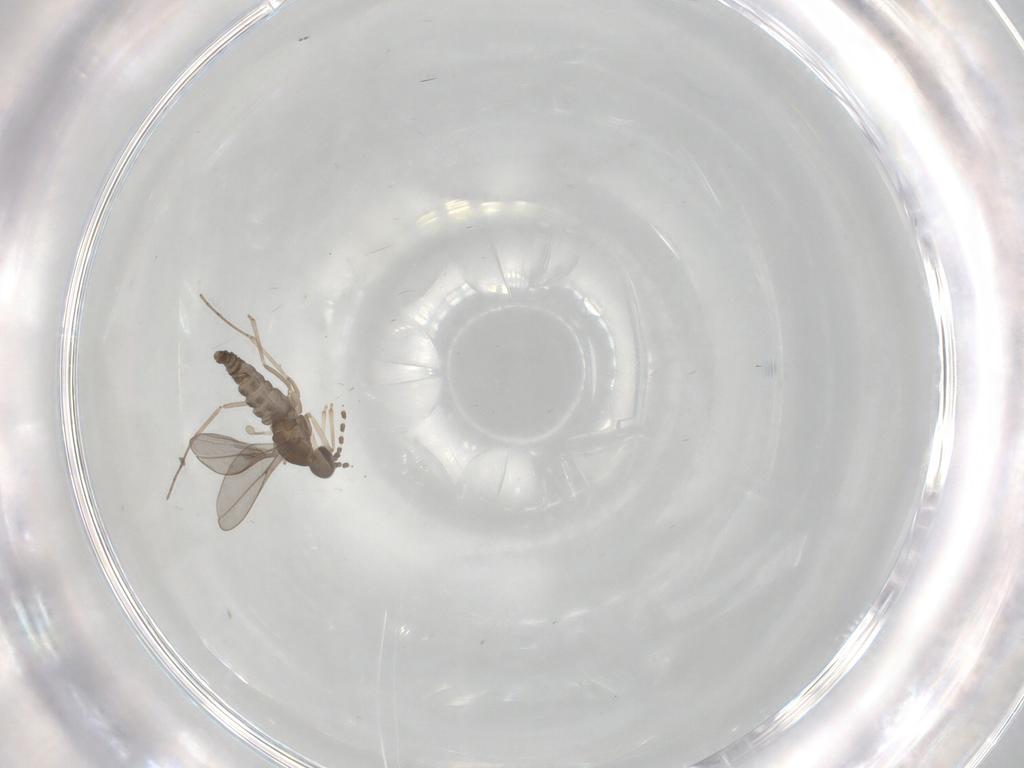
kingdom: Animalia
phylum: Arthropoda
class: Insecta
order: Diptera
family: Cecidomyiidae
